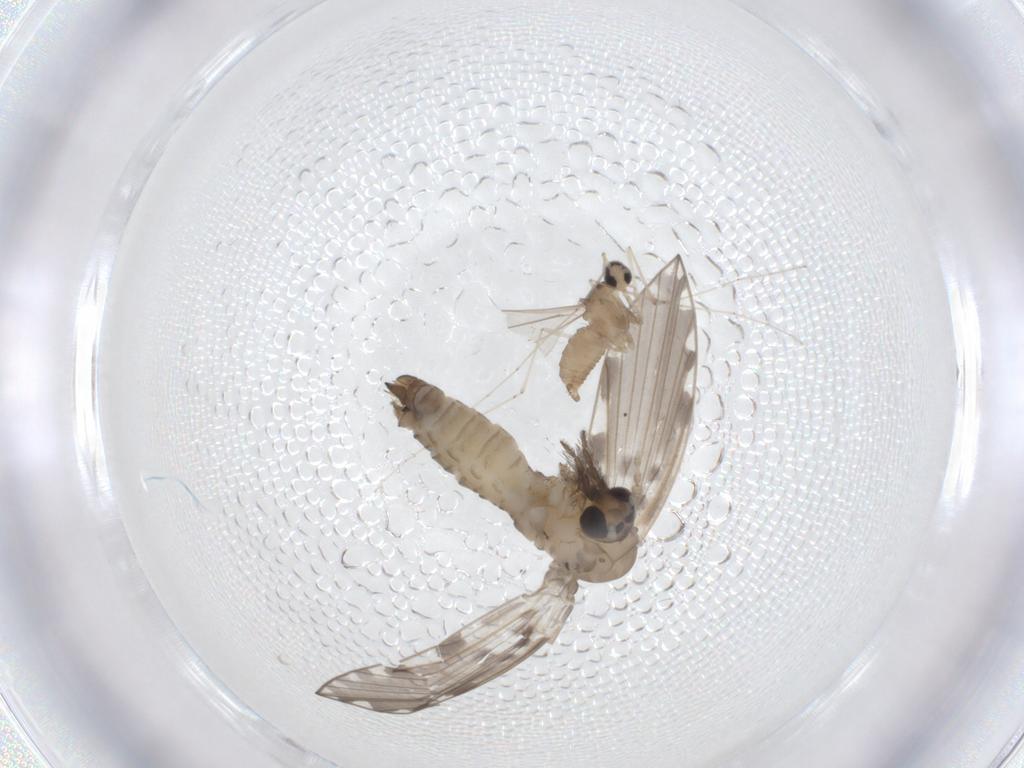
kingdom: Animalia
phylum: Arthropoda
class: Insecta
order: Diptera
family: Psychodidae
